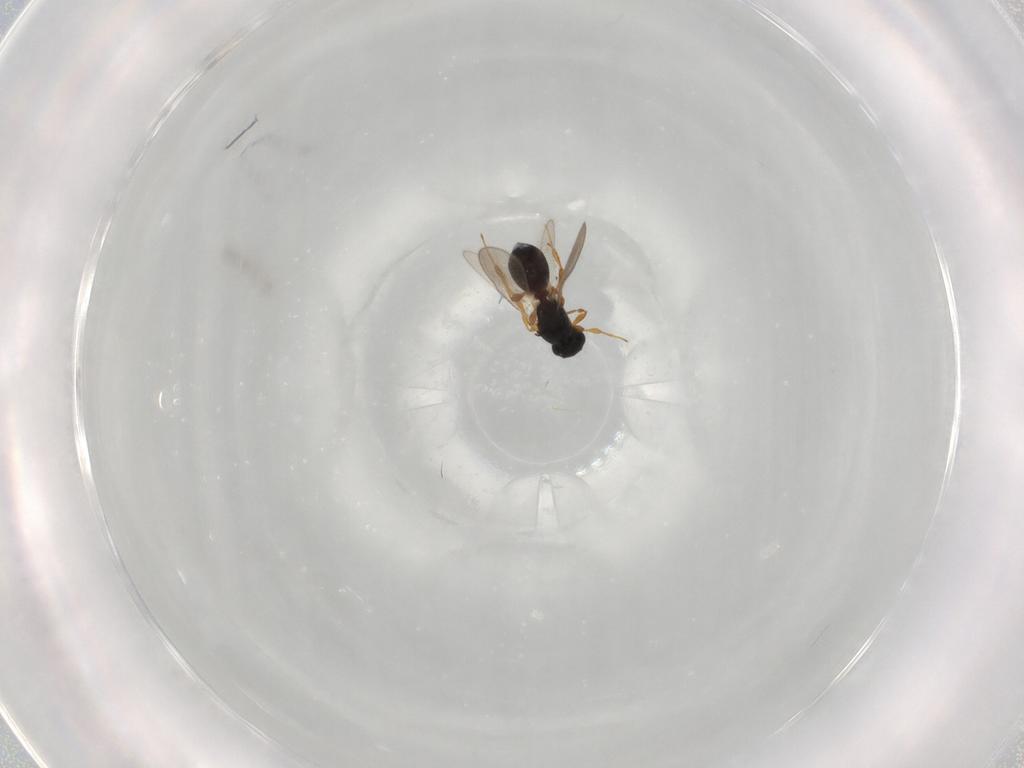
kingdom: Animalia
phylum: Arthropoda
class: Insecta
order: Hymenoptera
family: Platygastridae
